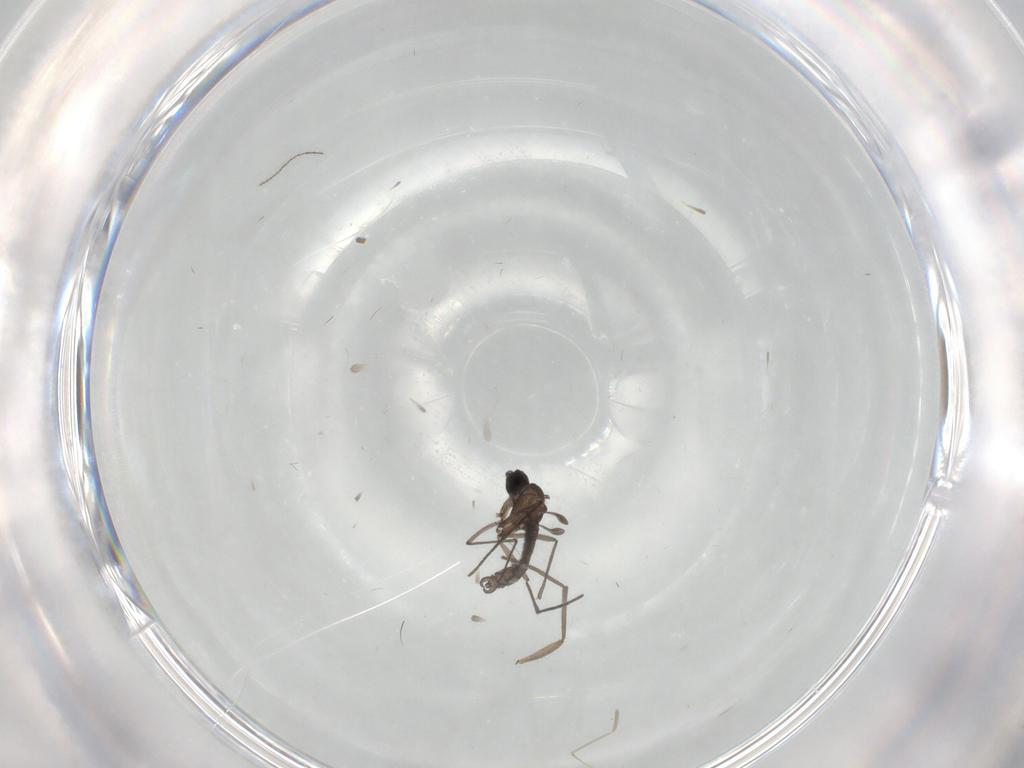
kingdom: Animalia
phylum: Arthropoda
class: Insecta
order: Diptera
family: Cecidomyiidae
